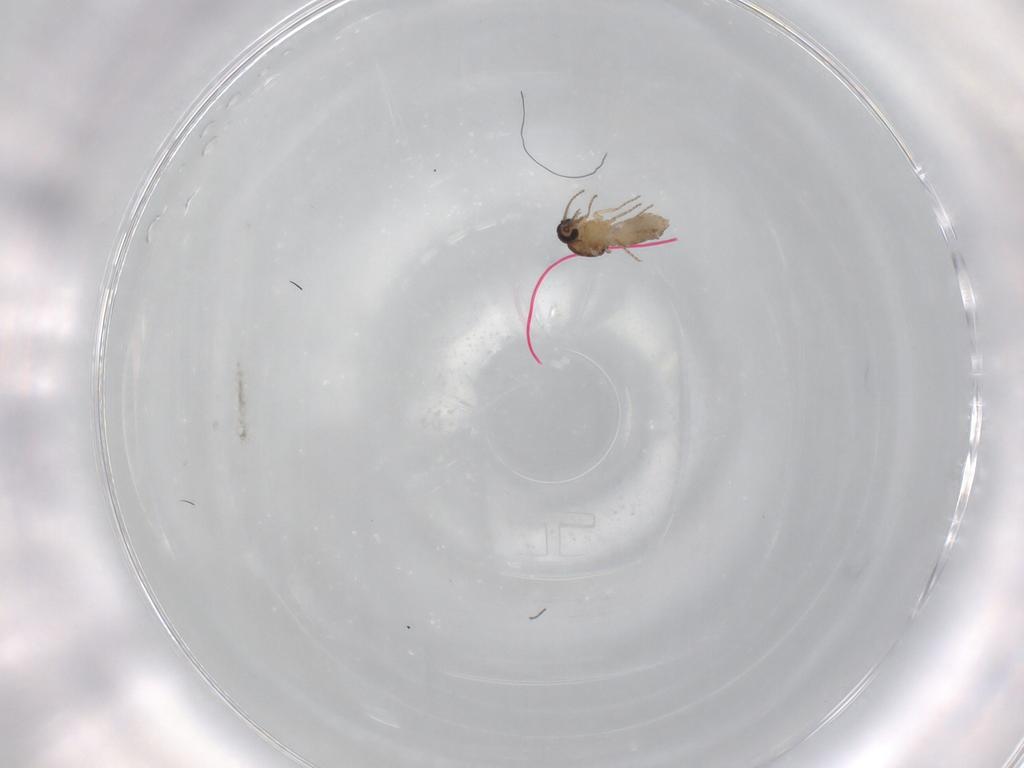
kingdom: Animalia
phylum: Arthropoda
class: Insecta
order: Diptera
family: Ceratopogonidae
